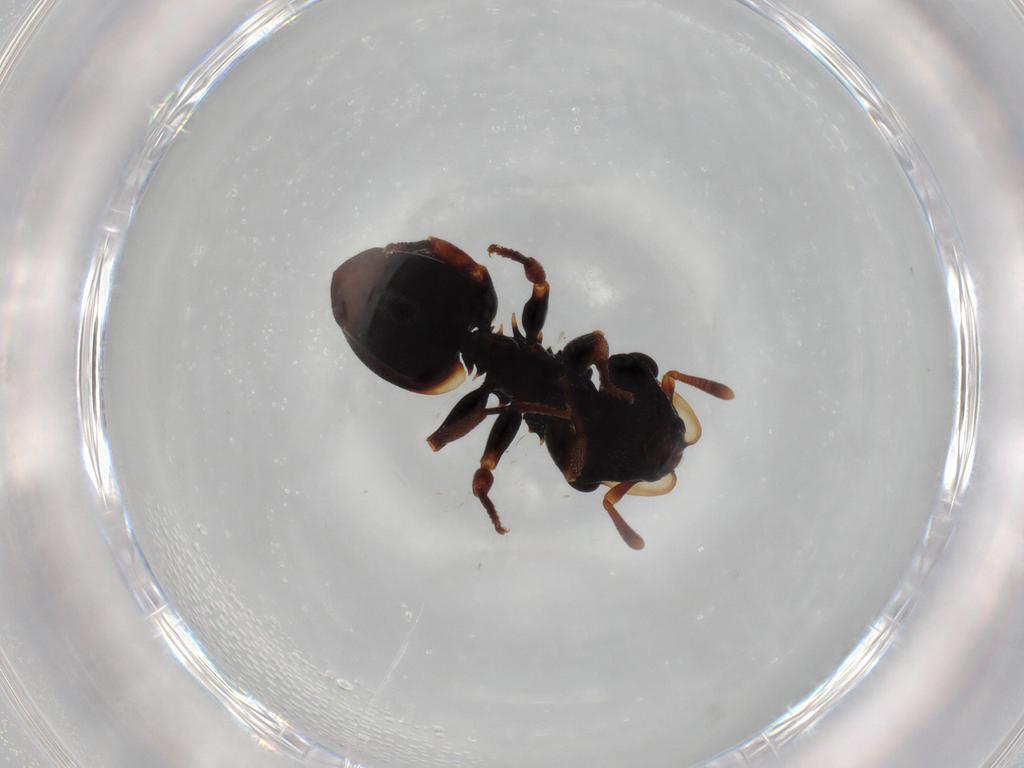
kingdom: Animalia
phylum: Arthropoda
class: Insecta
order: Hymenoptera
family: Formicidae
